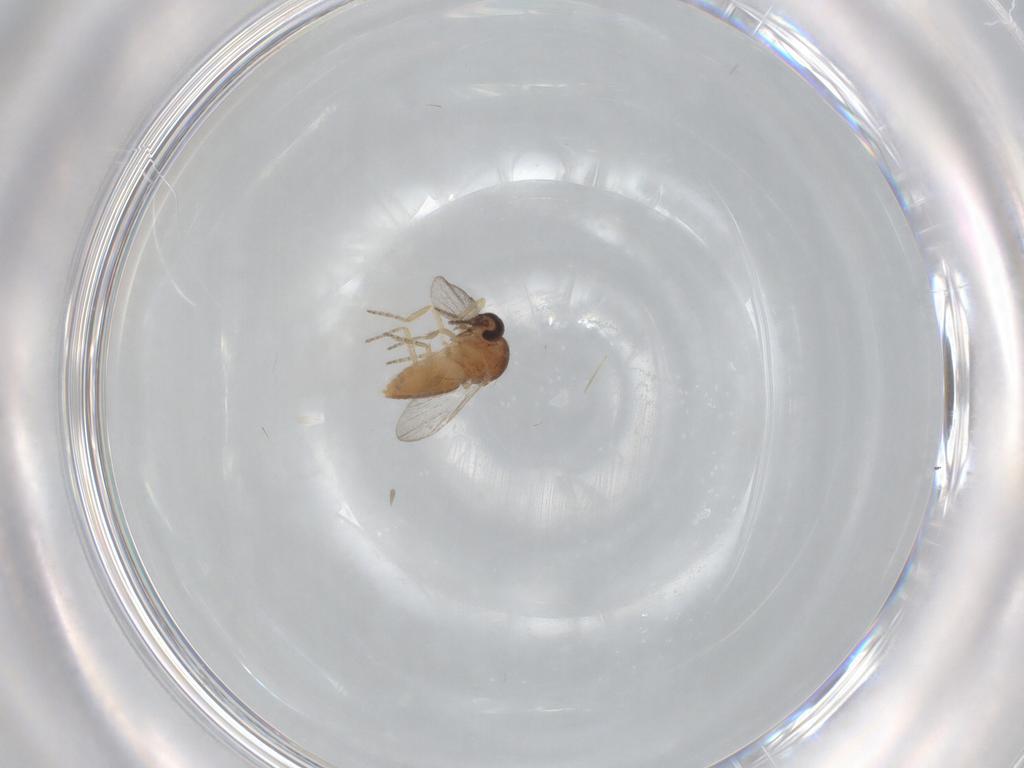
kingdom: Animalia
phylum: Arthropoda
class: Insecta
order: Diptera
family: Ceratopogonidae
